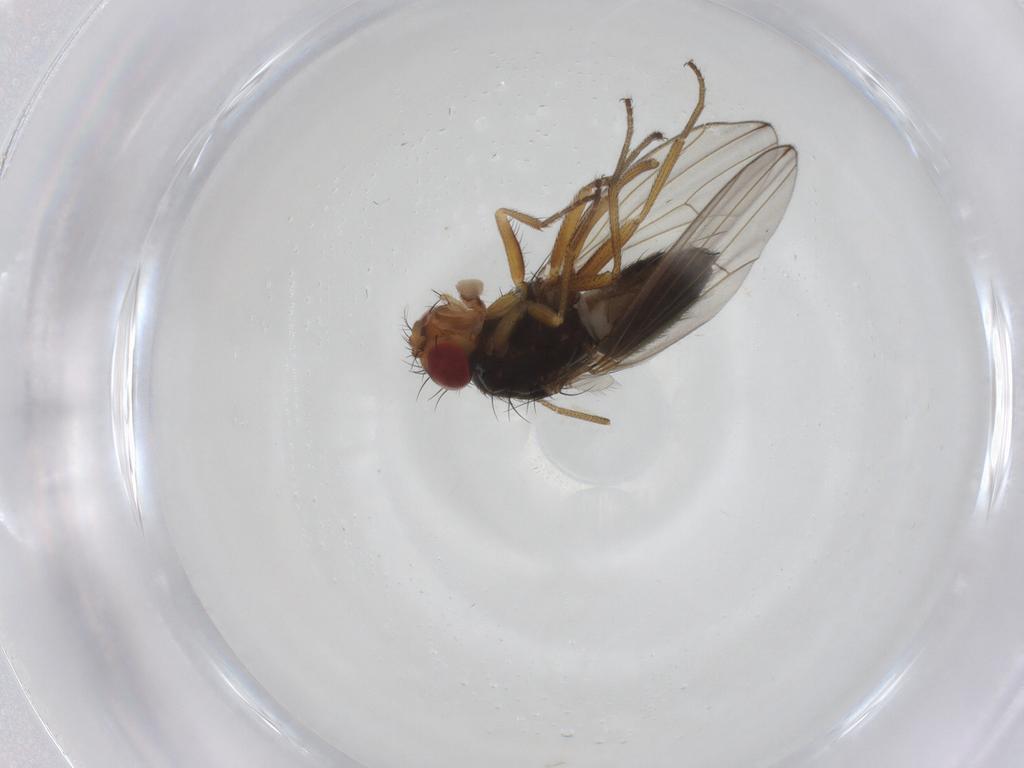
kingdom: Animalia
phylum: Arthropoda
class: Insecta
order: Diptera
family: Drosophilidae
